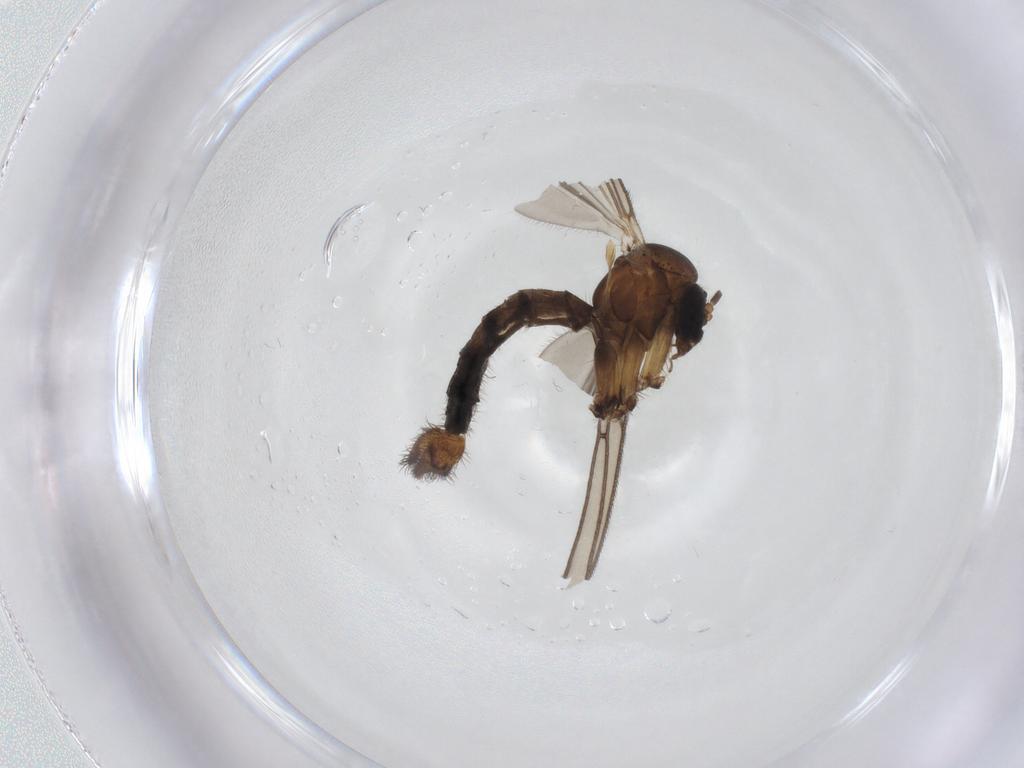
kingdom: Animalia
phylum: Arthropoda
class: Insecta
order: Diptera
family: Mycetophilidae
